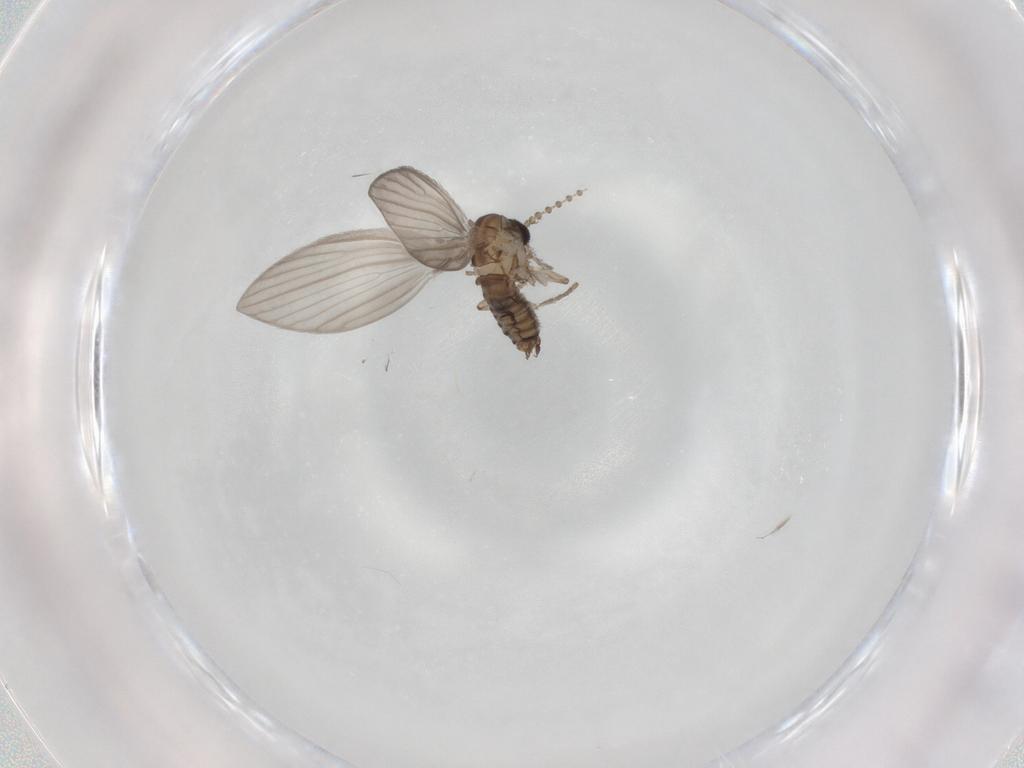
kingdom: Animalia
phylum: Arthropoda
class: Insecta
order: Diptera
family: Psychodidae
